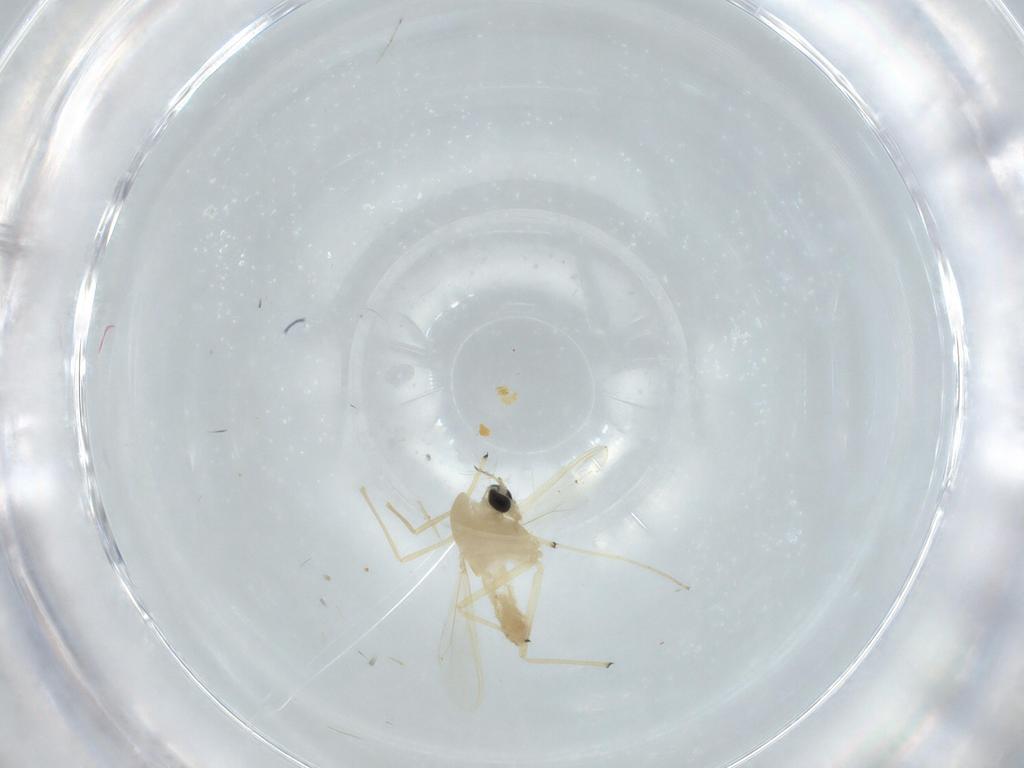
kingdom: Animalia
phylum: Arthropoda
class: Insecta
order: Diptera
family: Chironomidae
